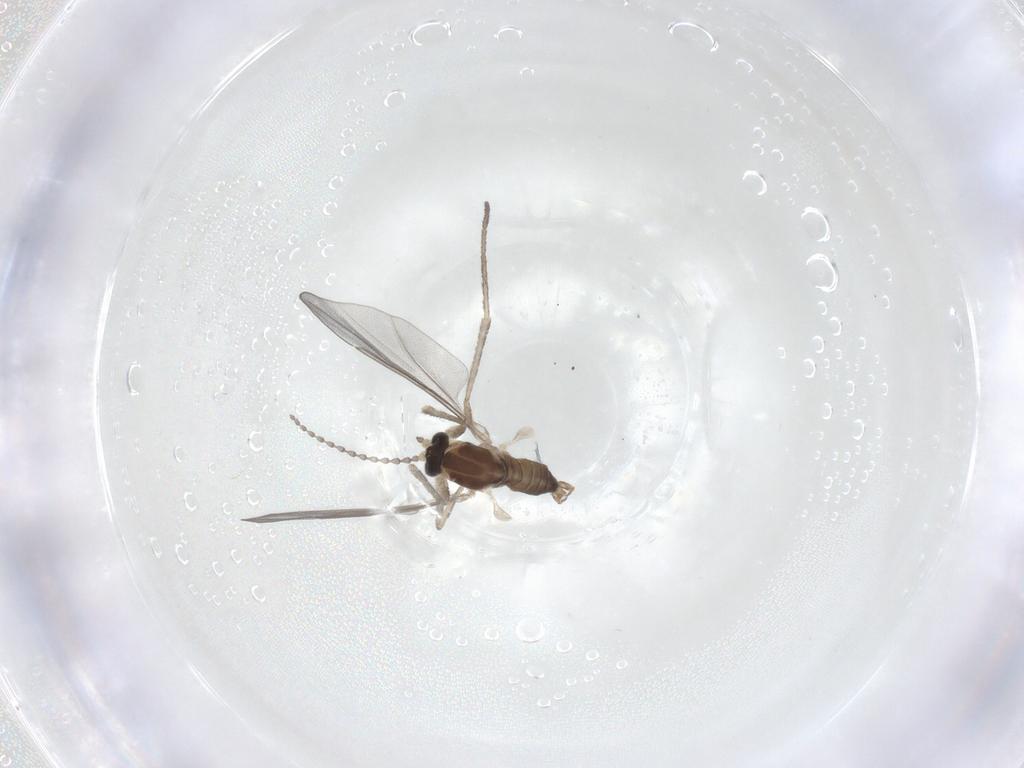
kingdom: Animalia
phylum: Arthropoda
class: Insecta
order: Diptera
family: Cecidomyiidae
